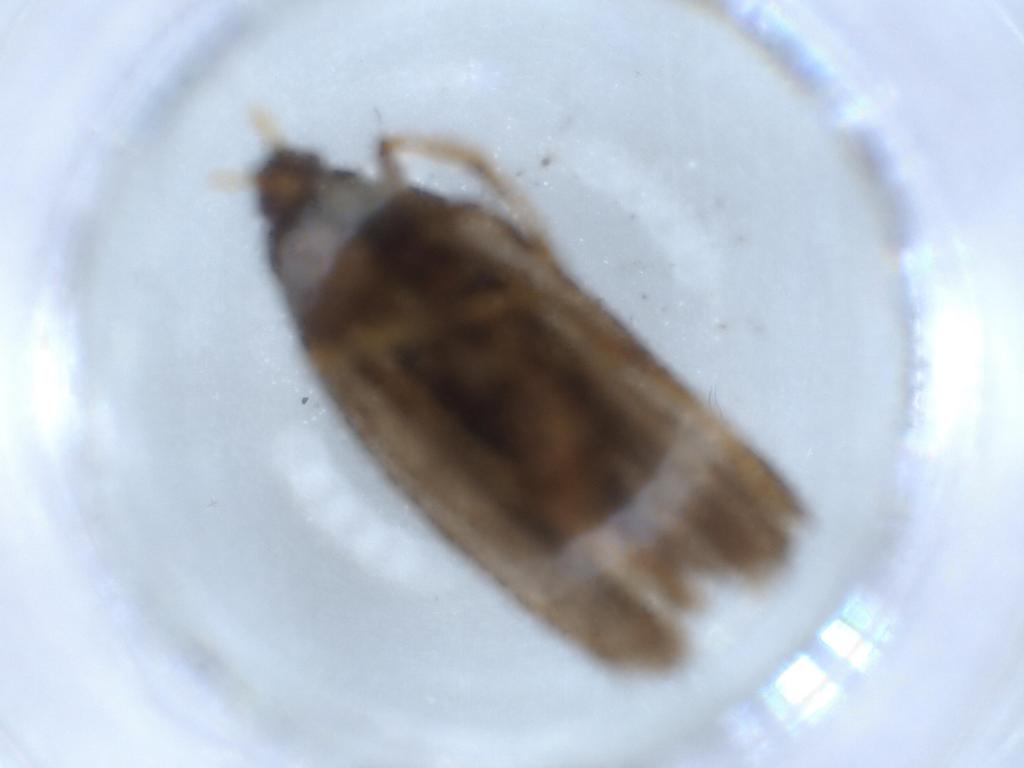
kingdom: Animalia
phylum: Arthropoda
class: Insecta
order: Lepidoptera
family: Lecithoceridae
